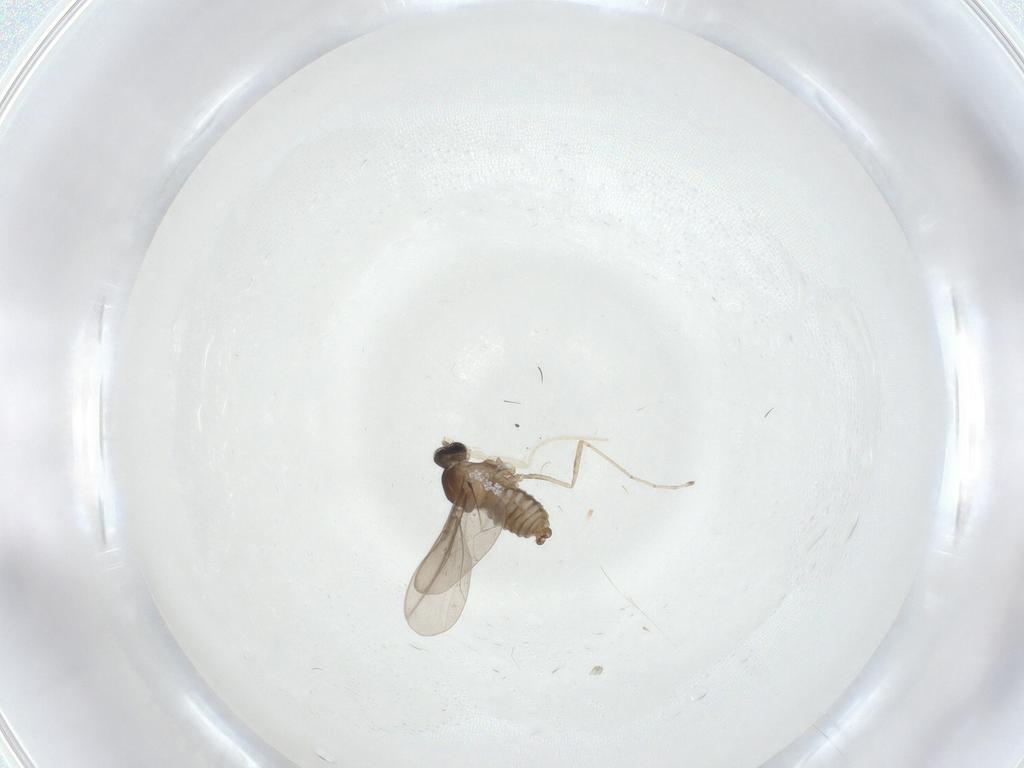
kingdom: Animalia
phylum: Arthropoda
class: Insecta
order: Diptera
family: Cecidomyiidae
